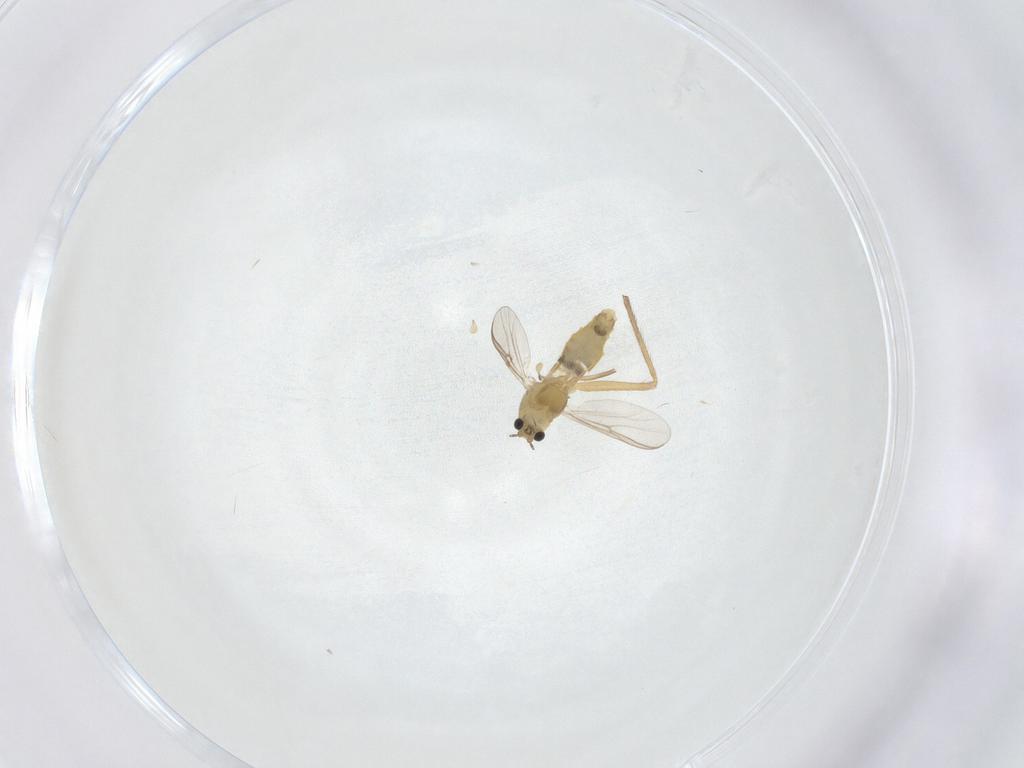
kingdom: Animalia
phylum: Arthropoda
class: Insecta
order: Diptera
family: Chironomidae
